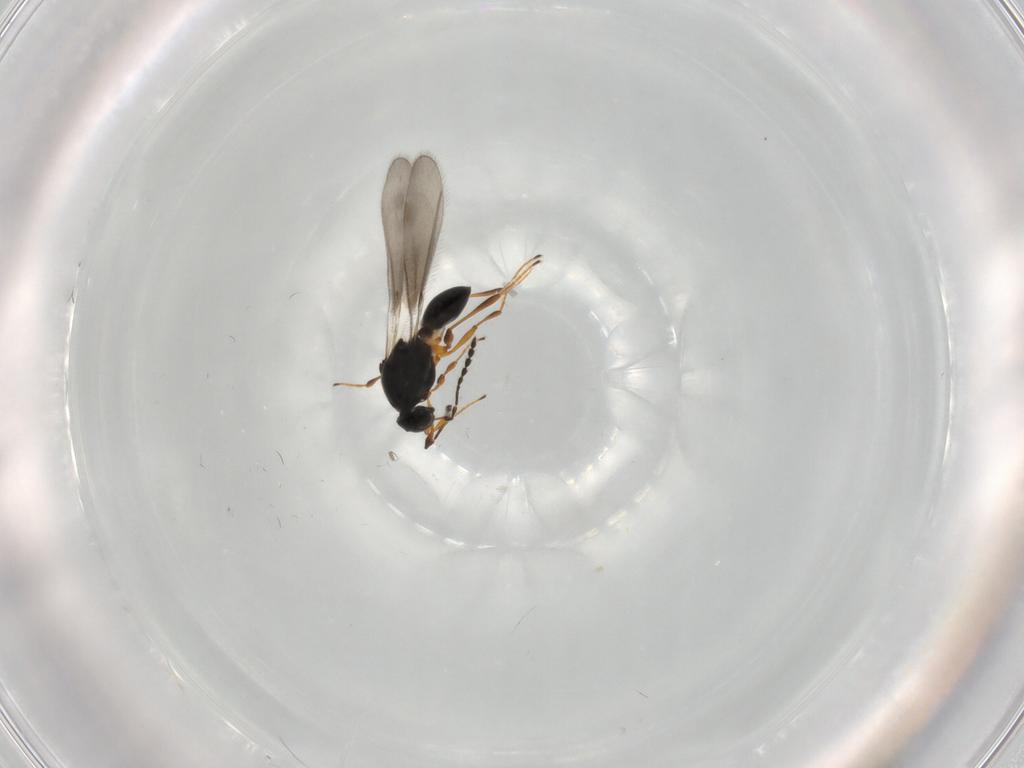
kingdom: Animalia
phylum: Arthropoda
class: Insecta
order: Hymenoptera
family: Platygastridae
